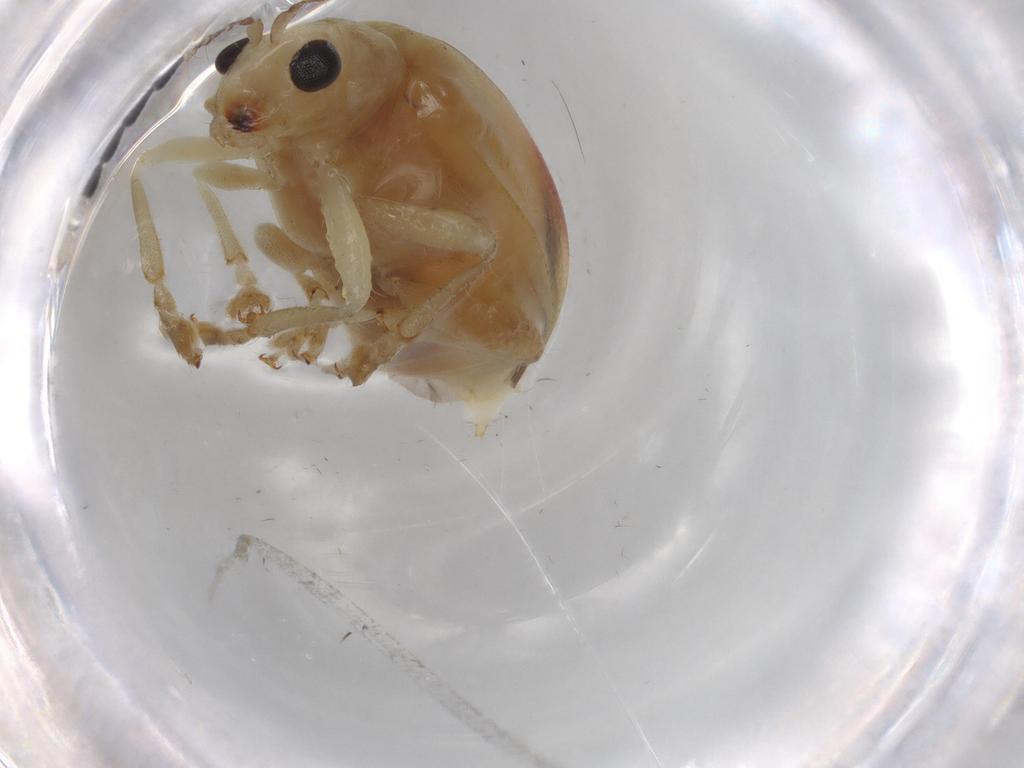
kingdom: Animalia
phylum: Arthropoda
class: Insecta
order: Coleoptera
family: Chrysomelidae
